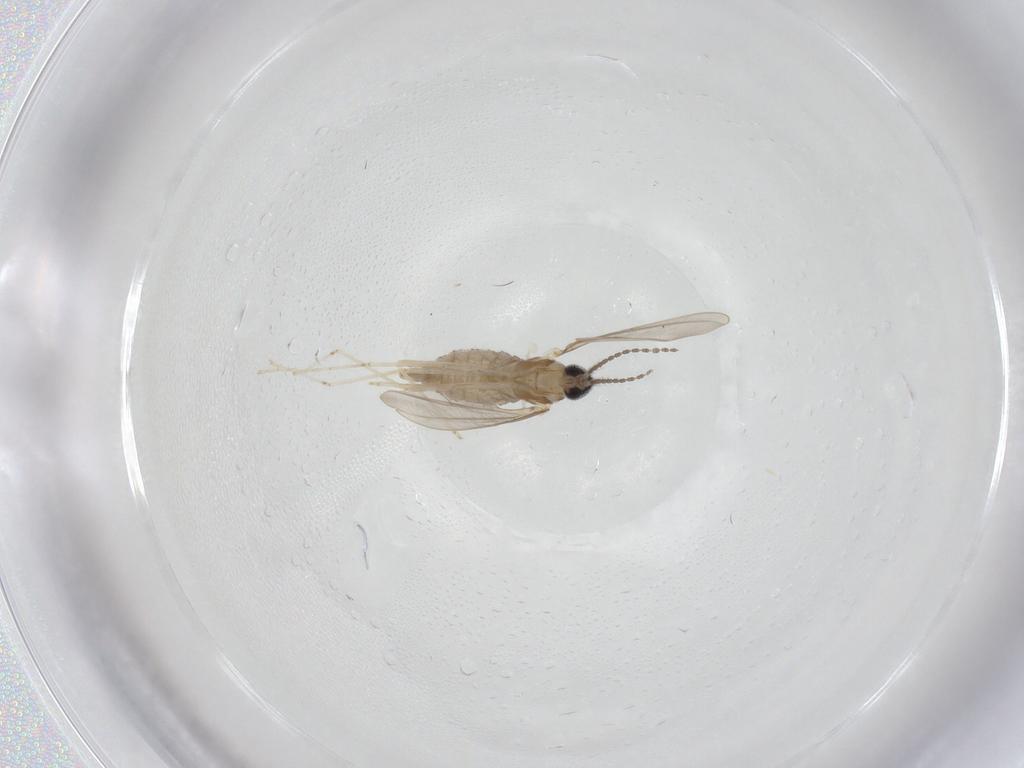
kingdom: Animalia
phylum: Arthropoda
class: Insecta
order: Diptera
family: Cecidomyiidae
